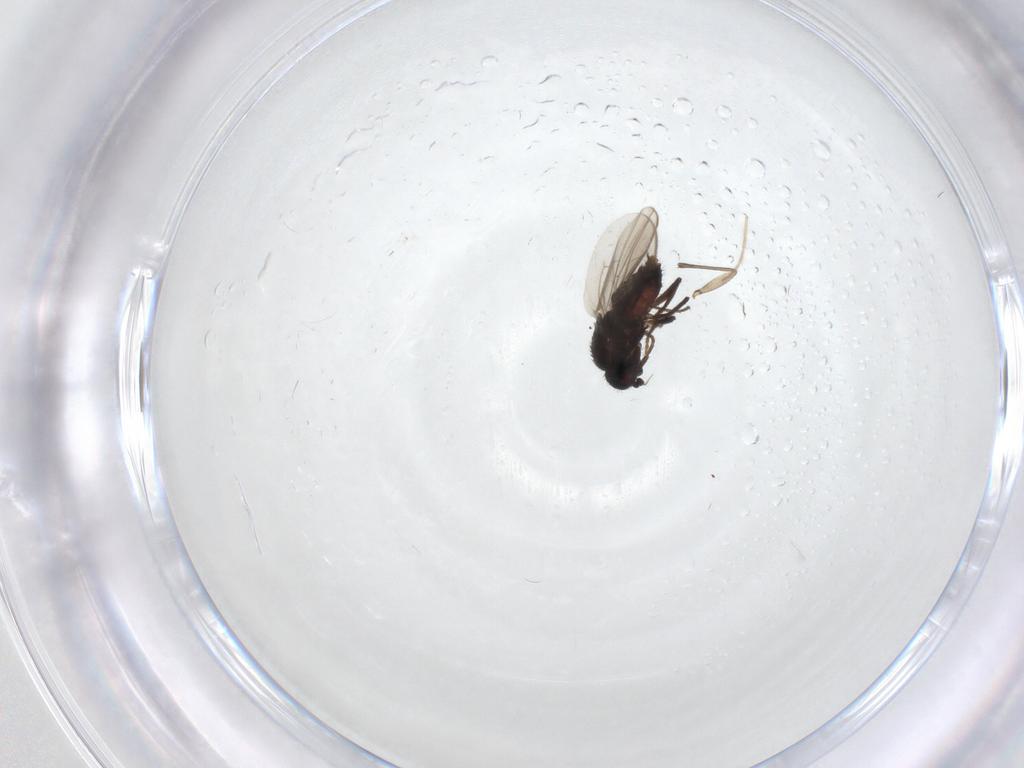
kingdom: Animalia
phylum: Arthropoda
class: Insecta
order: Diptera
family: Sphaeroceridae
